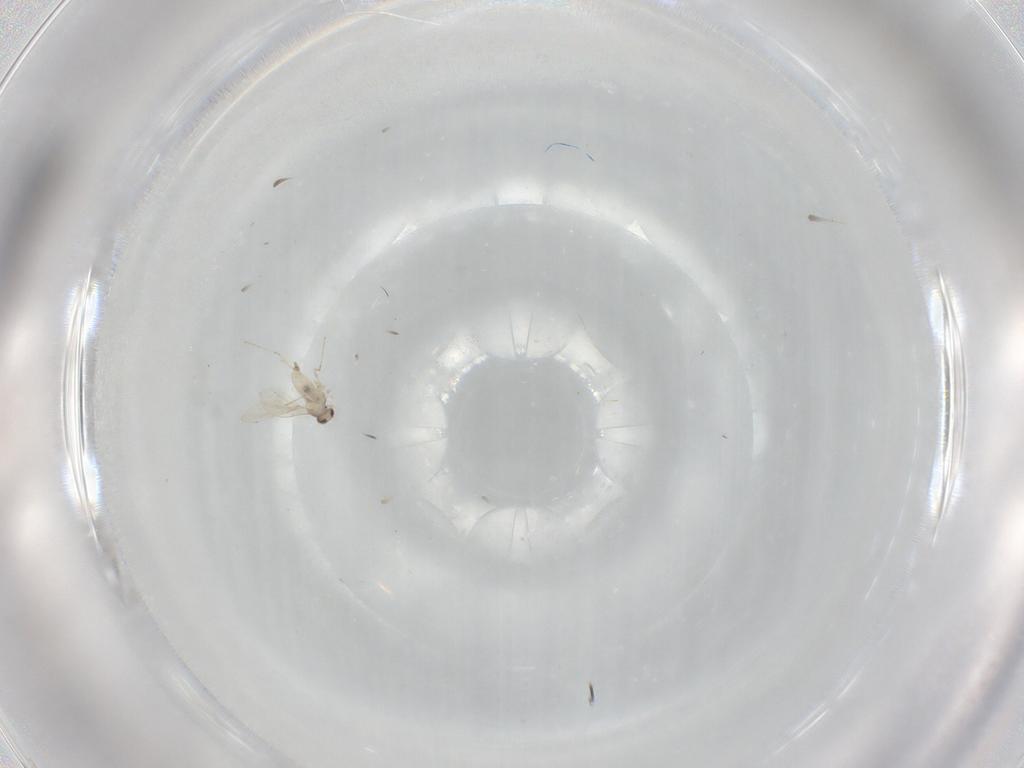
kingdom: Animalia
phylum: Arthropoda
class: Insecta
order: Diptera
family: Cecidomyiidae
